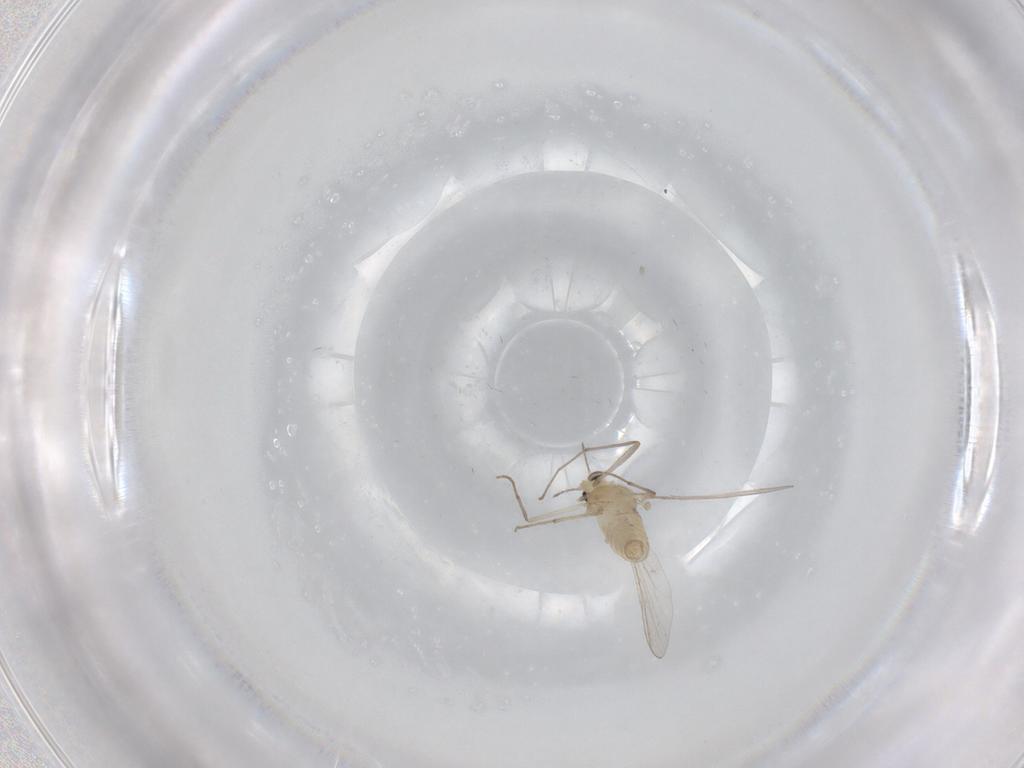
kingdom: Animalia
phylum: Arthropoda
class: Insecta
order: Diptera
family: Chironomidae
